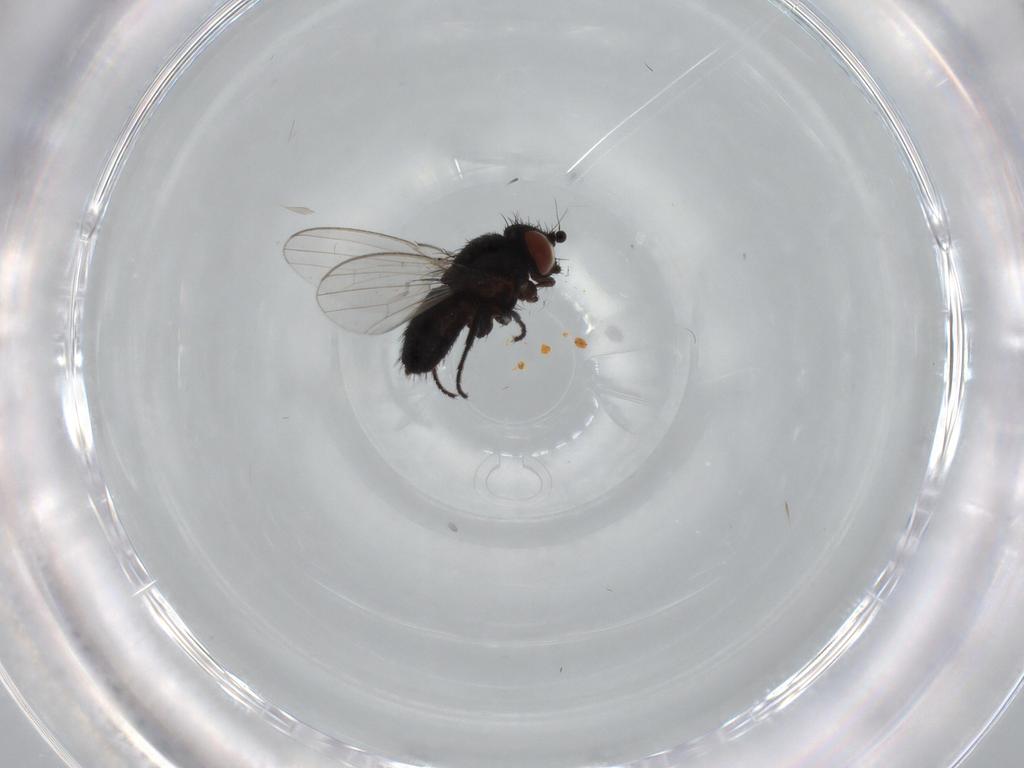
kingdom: Animalia
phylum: Arthropoda
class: Insecta
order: Diptera
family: Milichiidae
